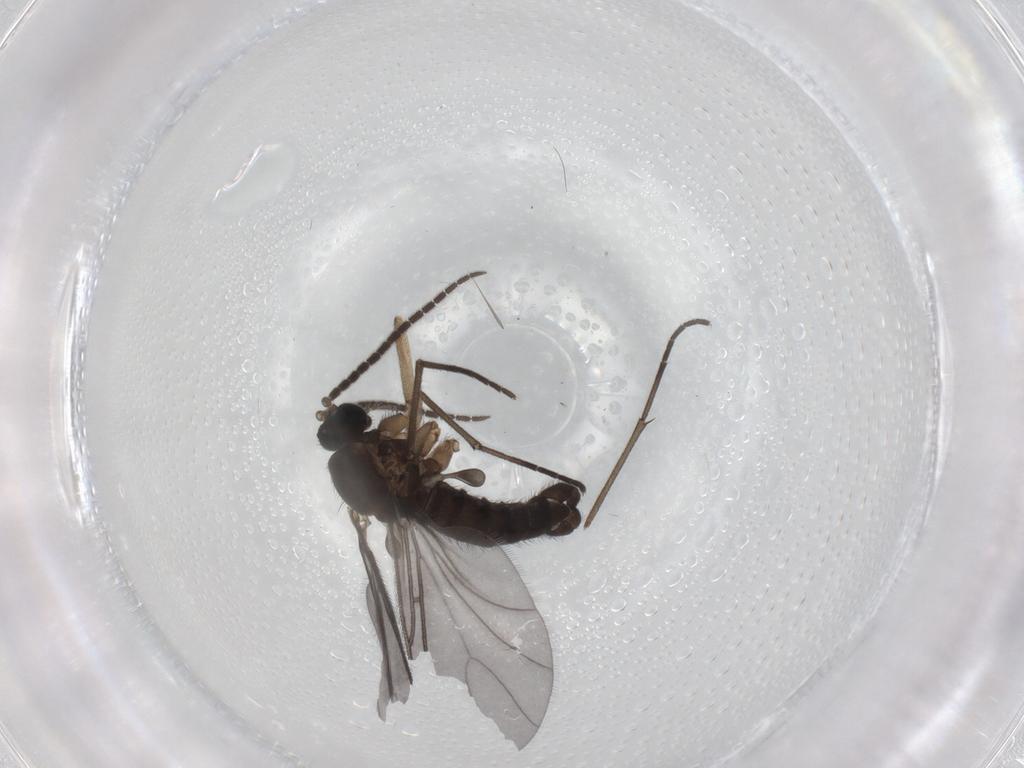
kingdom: Animalia
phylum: Arthropoda
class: Insecta
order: Diptera
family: Sciaridae
